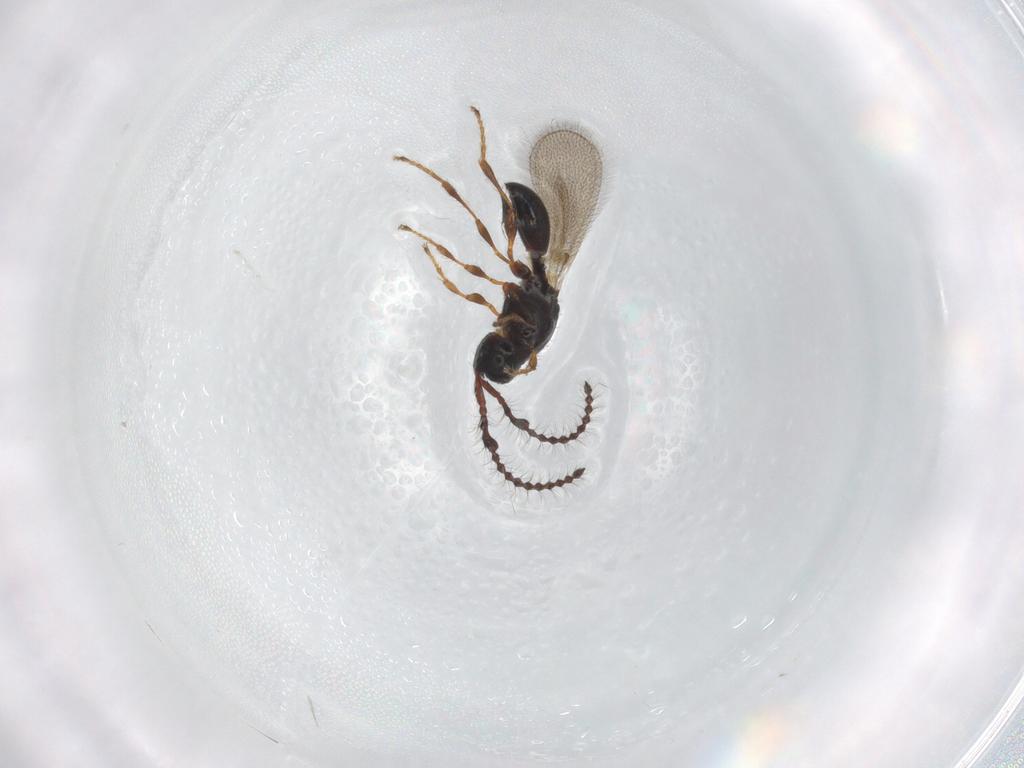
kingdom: Animalia
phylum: Arthropoda
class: Insecta
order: Hymenoptera
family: Diapriidae
